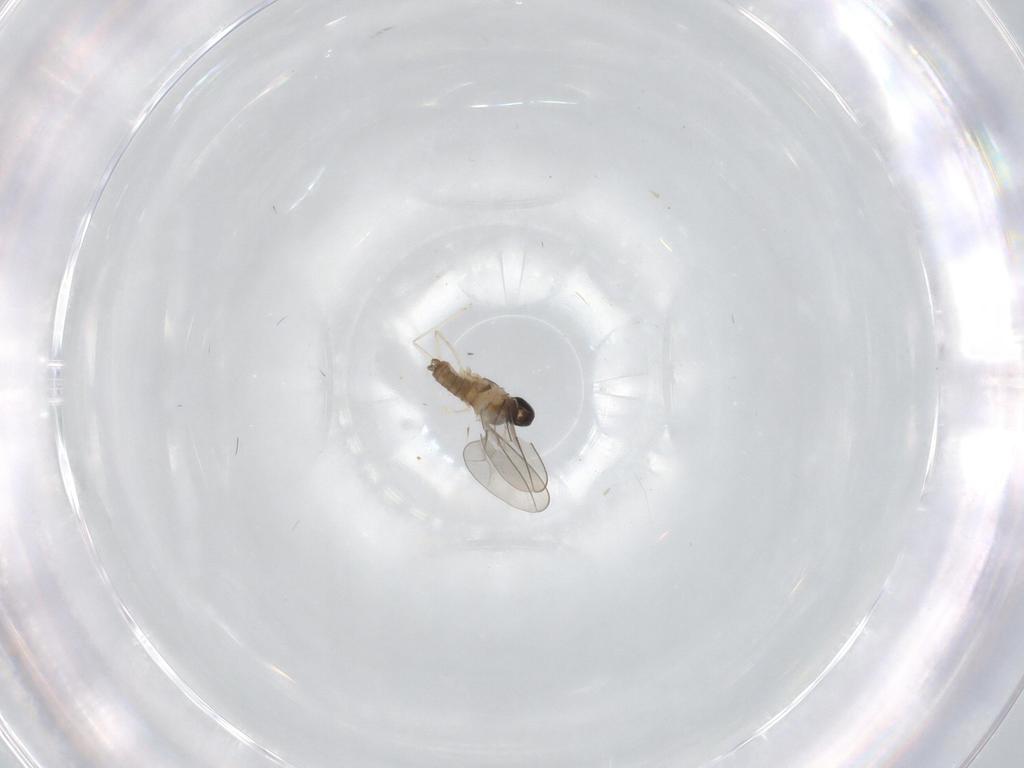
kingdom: Animalia
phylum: Arthropoda
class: Insecta
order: Diptera
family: Cecidomyiidae
